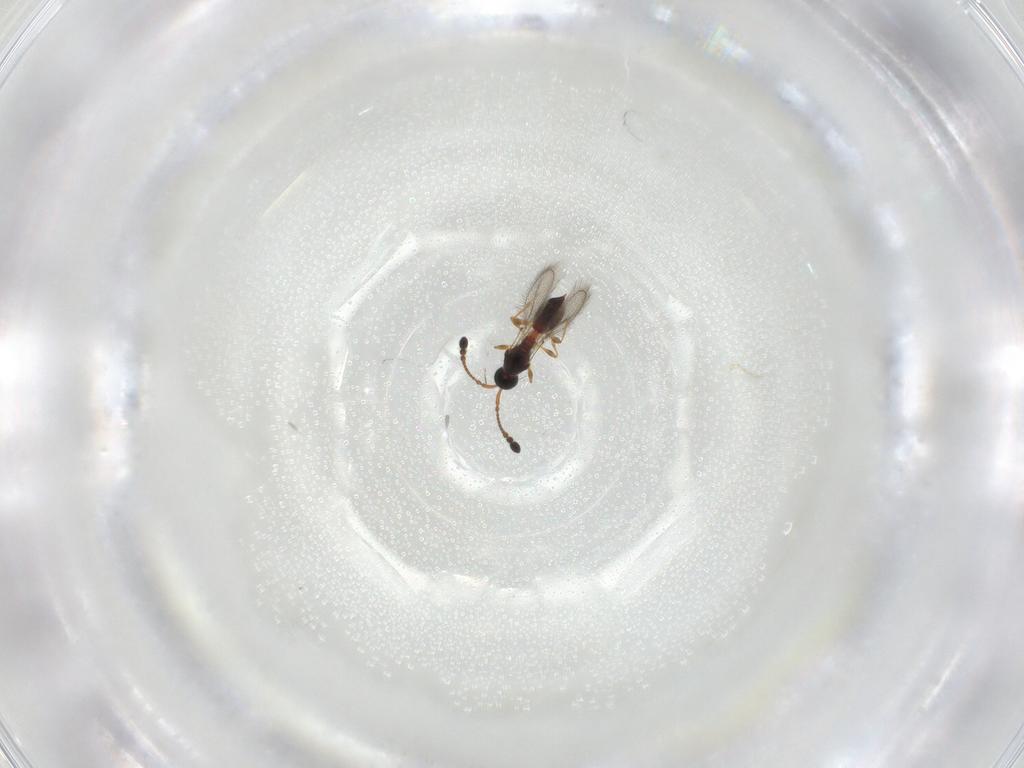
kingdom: Animalia
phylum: Arthropoda
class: Insecta
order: Hymenoptera
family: Diapriidae
